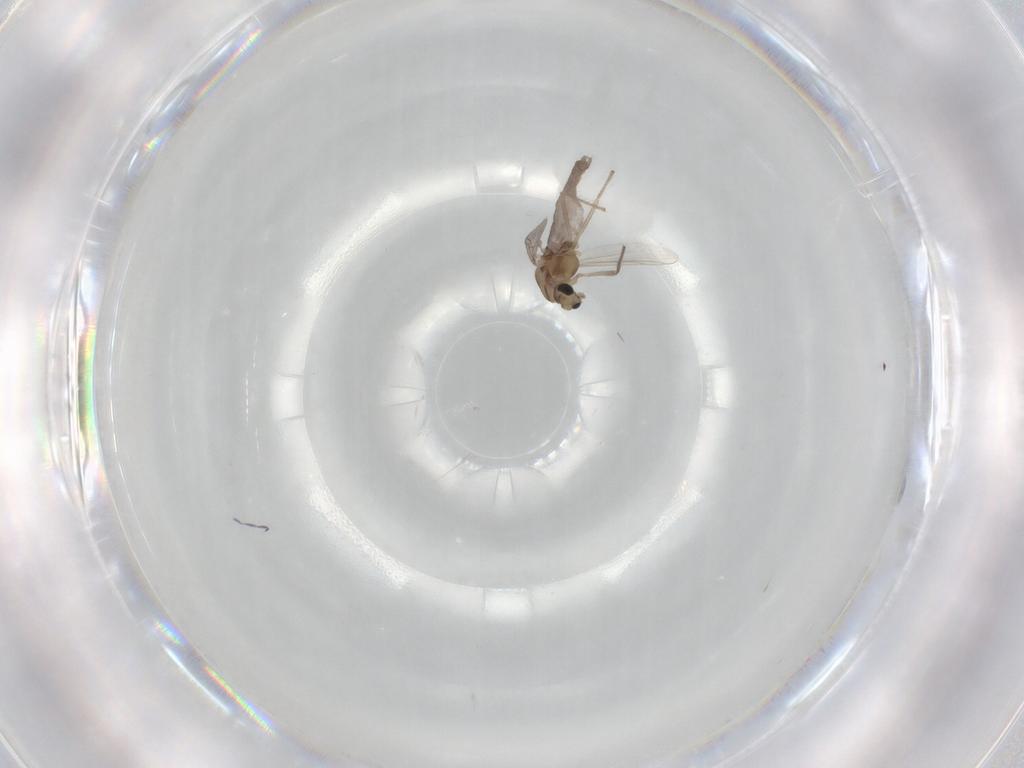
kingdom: Animalia
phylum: Arthropoda
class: Insecta
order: Diptera
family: Chironomidae
